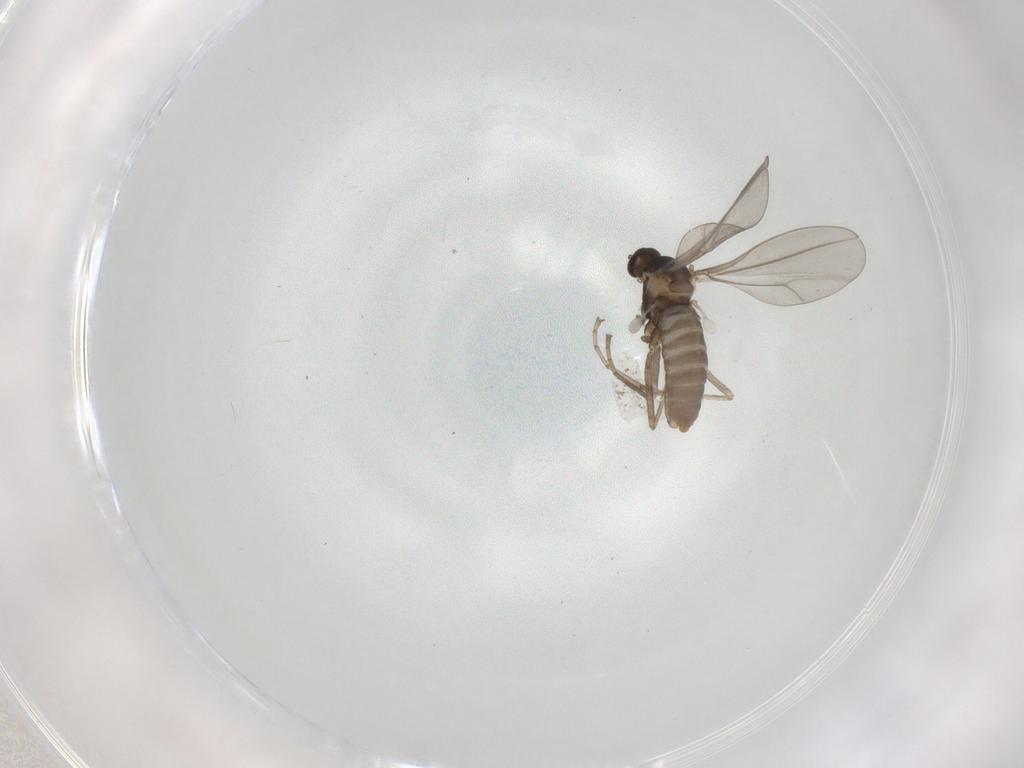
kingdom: Animalia
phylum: Arthropoda
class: Insecta
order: Diptera
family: Cecidomyiidae
